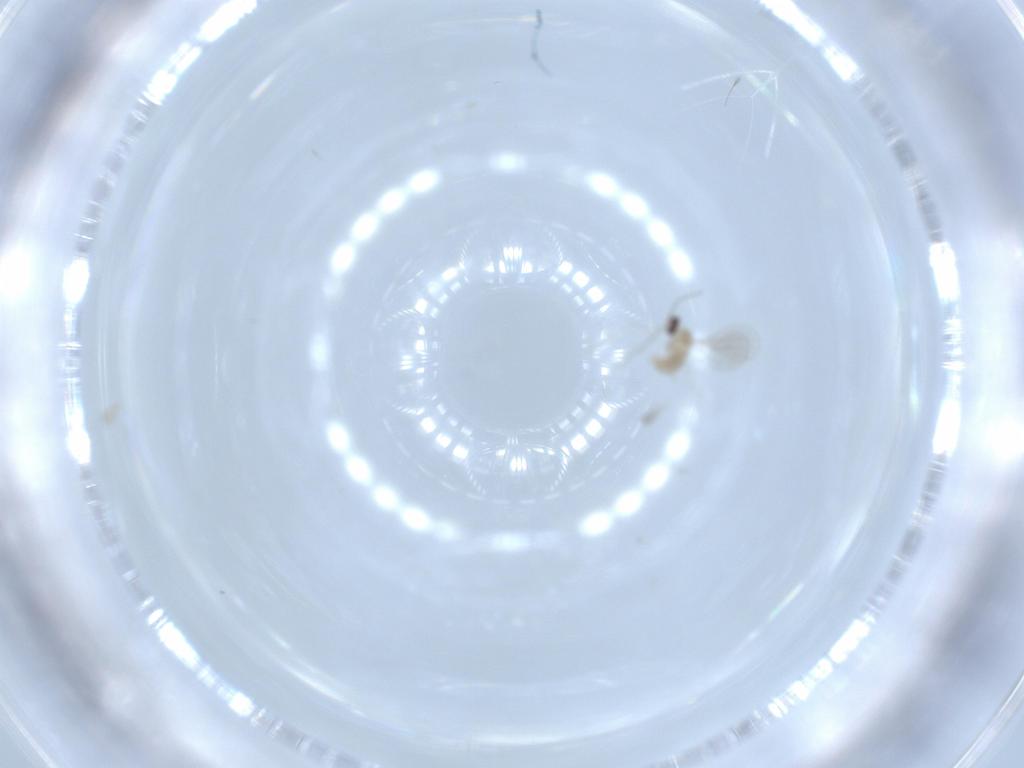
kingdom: Animalia
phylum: Arthropoda
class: Insecta
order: Diptera
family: Cecidomyiidae
